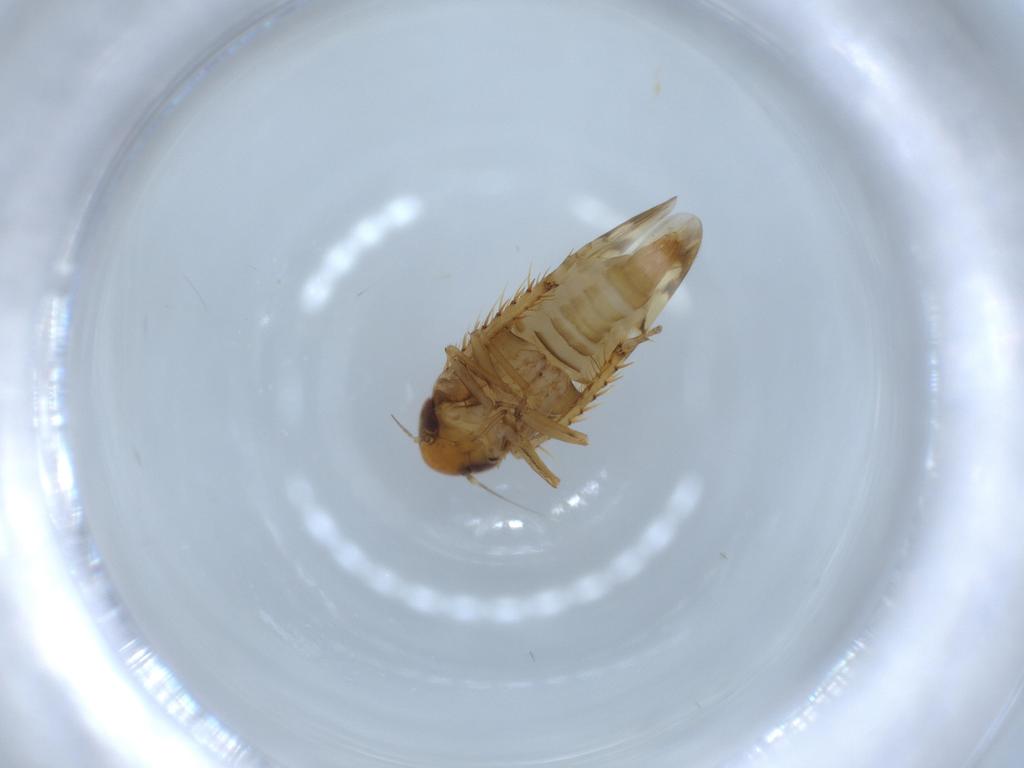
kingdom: Animalia
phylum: Arthropoda
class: Insecta
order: Hemiptera
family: Cicadellidae
